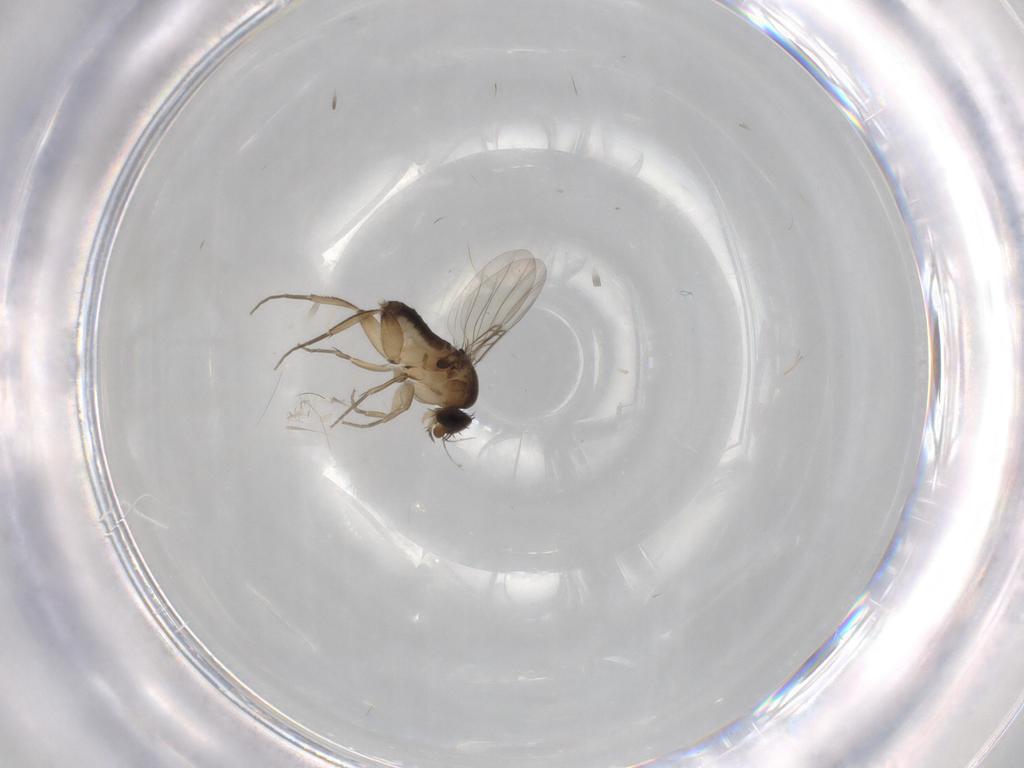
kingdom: Animalia
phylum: Arthropoda
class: Insecta
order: Diptera
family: Phoridae
